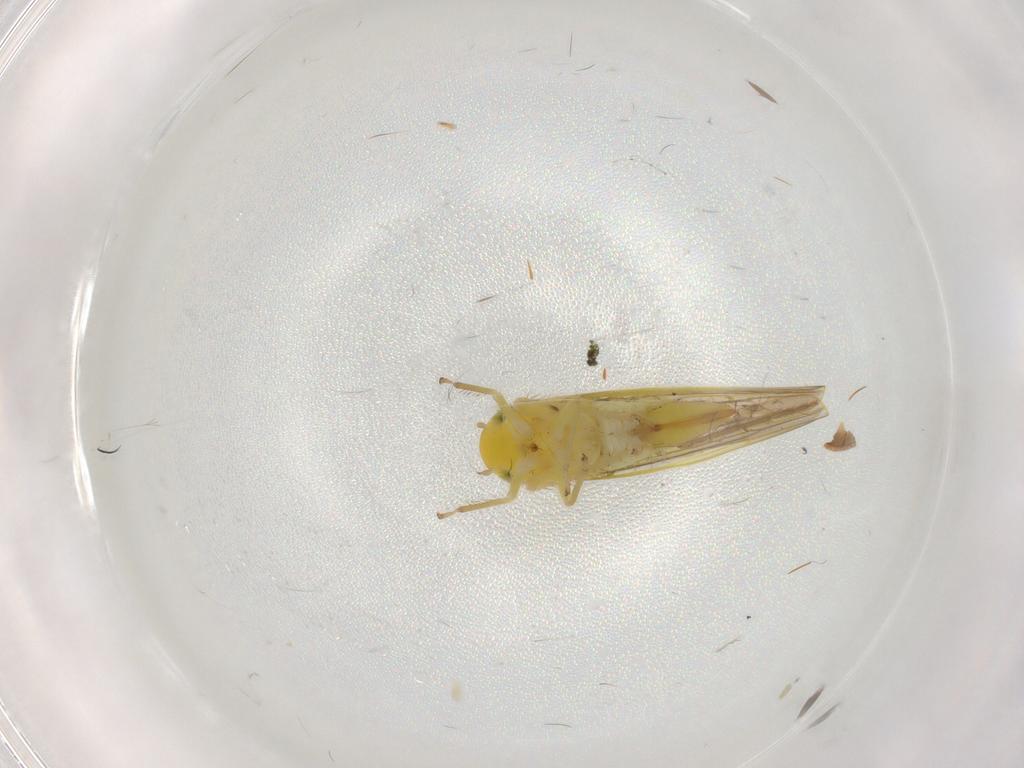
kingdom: Animalia
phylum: Arthropoda
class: Insecta
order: Hemiptera
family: Cicadellidae
